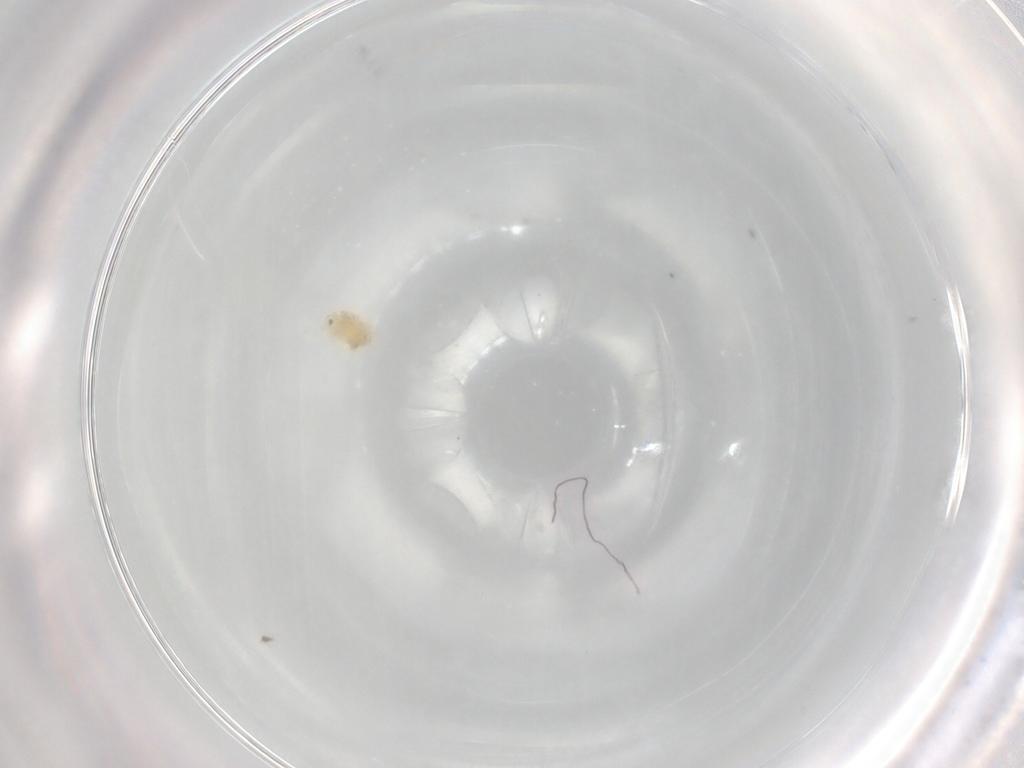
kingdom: Animalia
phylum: Arthropoda
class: Arachnida
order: Trombidiformes
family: Eupodidae
